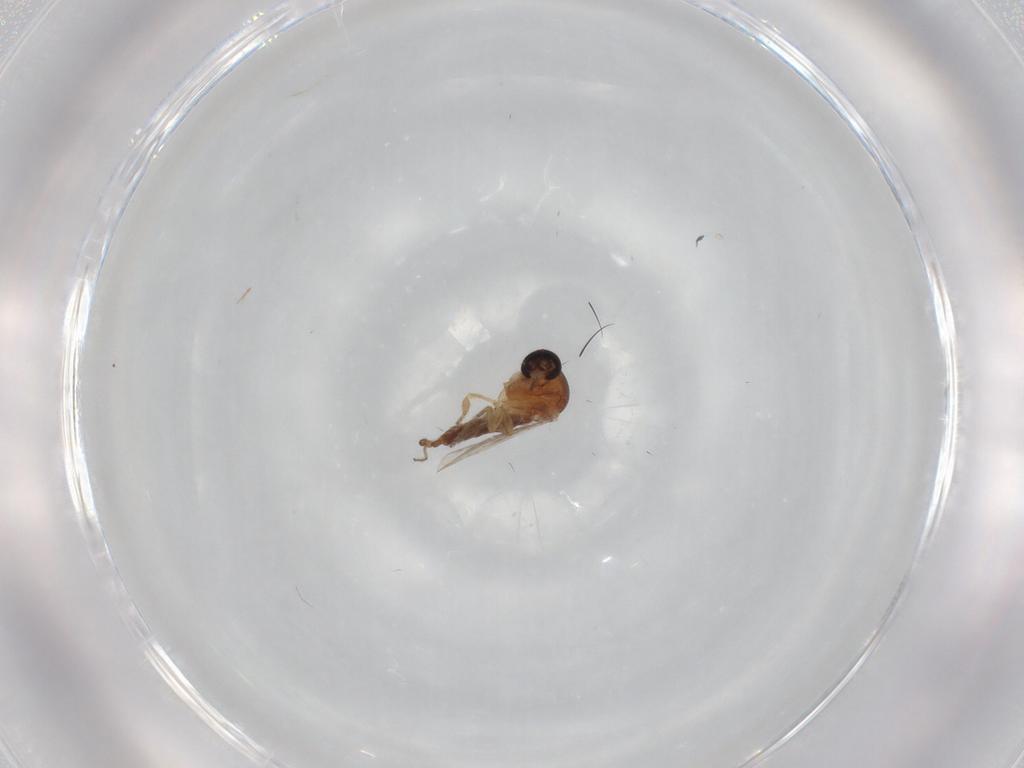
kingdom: Animalia
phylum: Arthropoda
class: Insecta
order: Diptera
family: Ceratopogonidae
